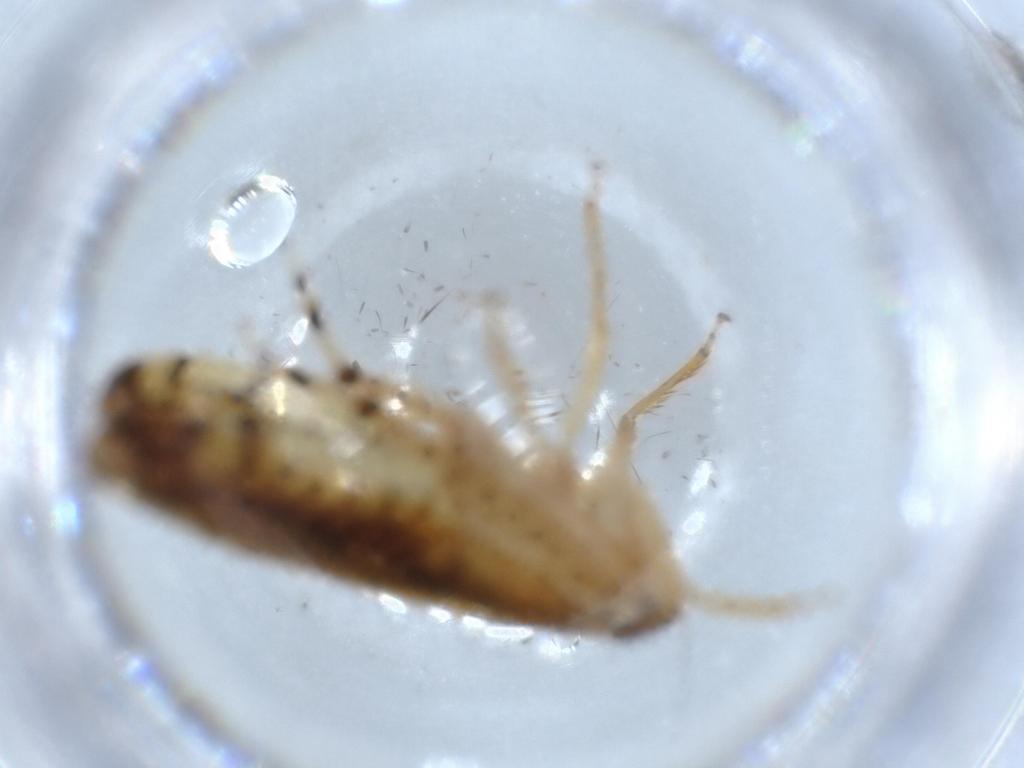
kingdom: Animalia
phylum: Arthropoda
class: Insecta
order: Hemiptera
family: Cicadellidae
